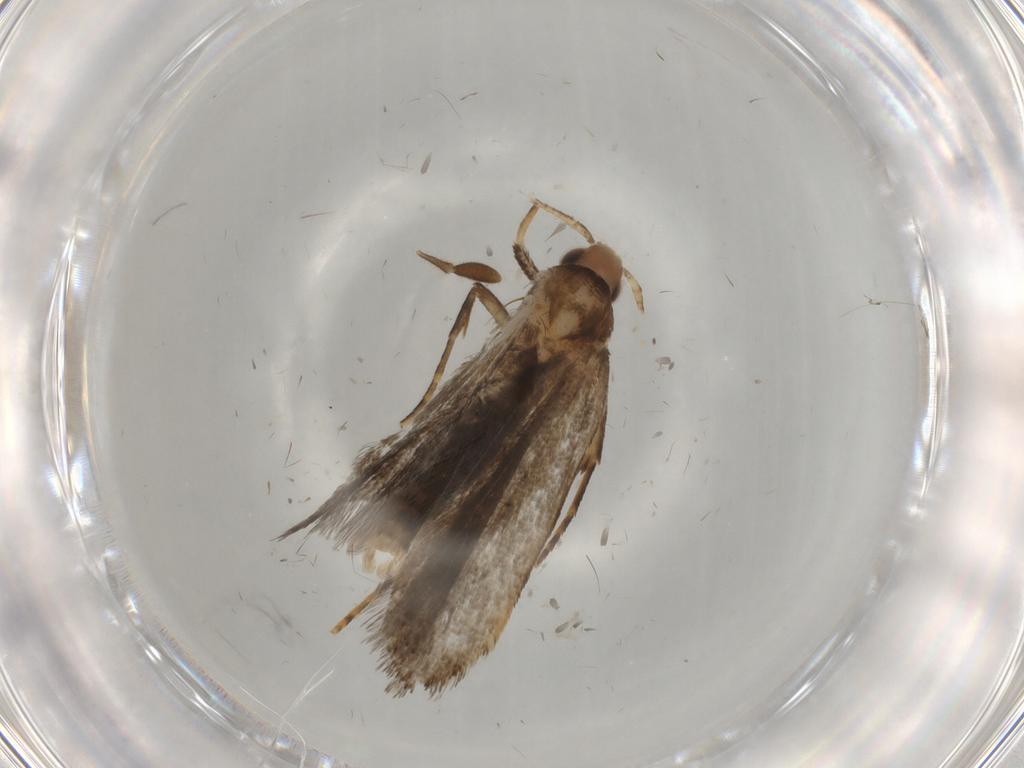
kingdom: Animalia
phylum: Arthropoda
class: Insecta
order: Lepidoptera
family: Gelechiidae
